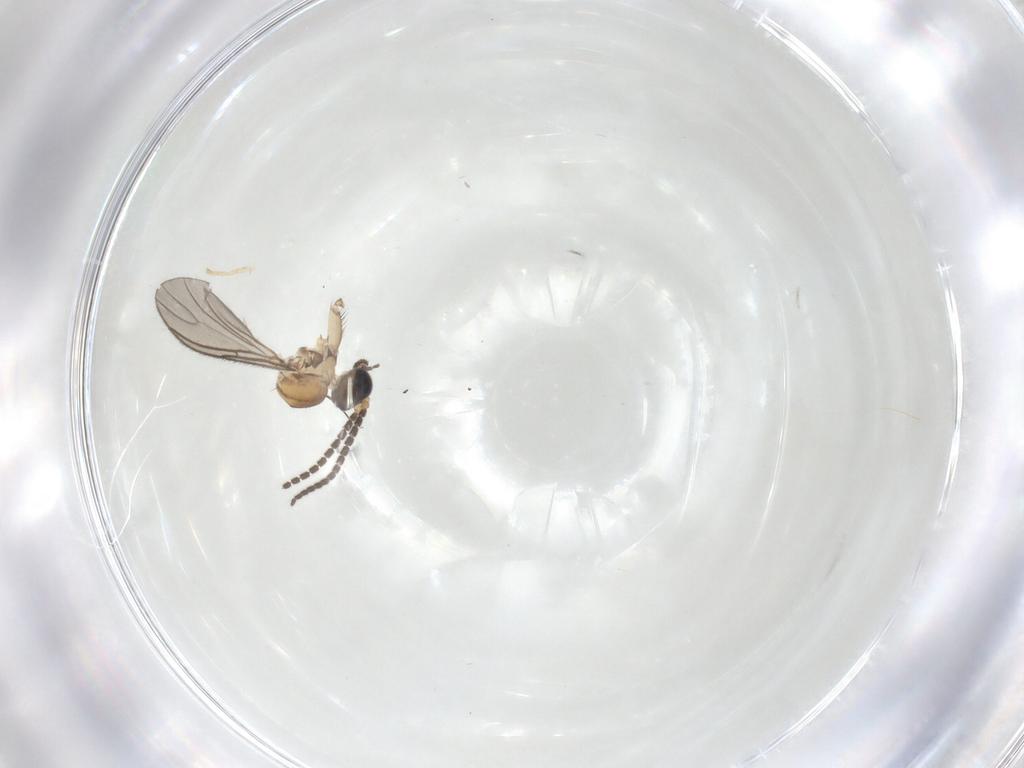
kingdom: Animalia
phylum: Arthropoda
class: Insecta
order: Diptera
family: Sciaridae
